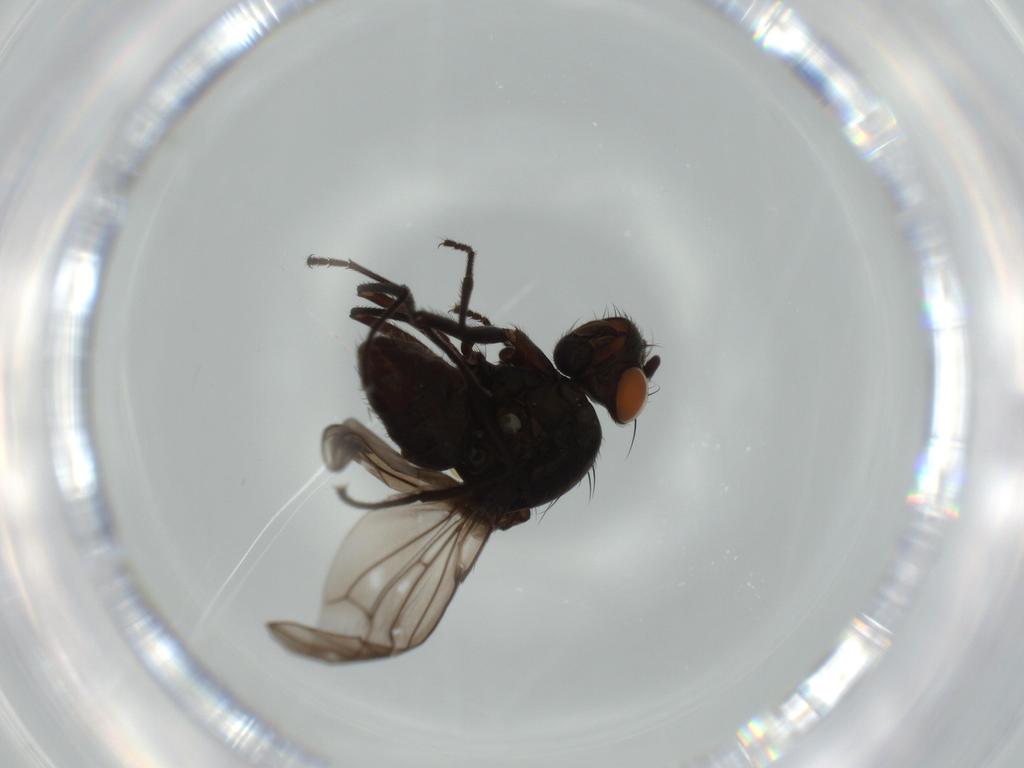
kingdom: Animalia
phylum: Arthropoda
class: Insecta
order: Diptera
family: Ephydridae
